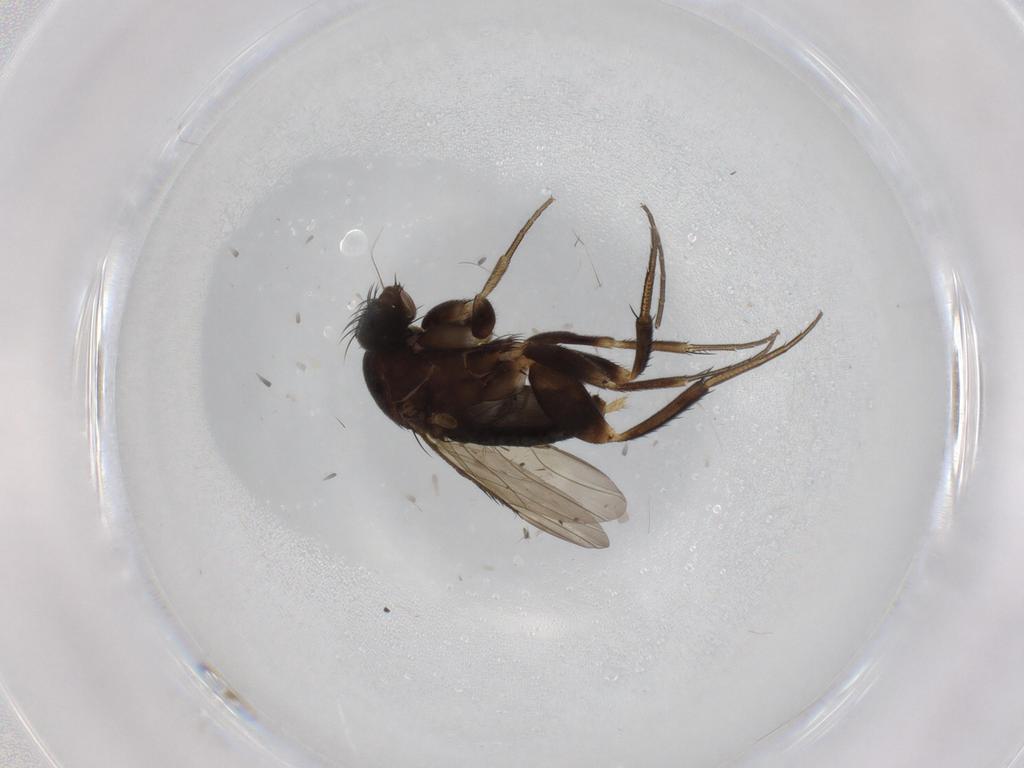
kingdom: Animalia
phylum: Arthropoda
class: Insecta
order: Diptera
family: Phoridae
